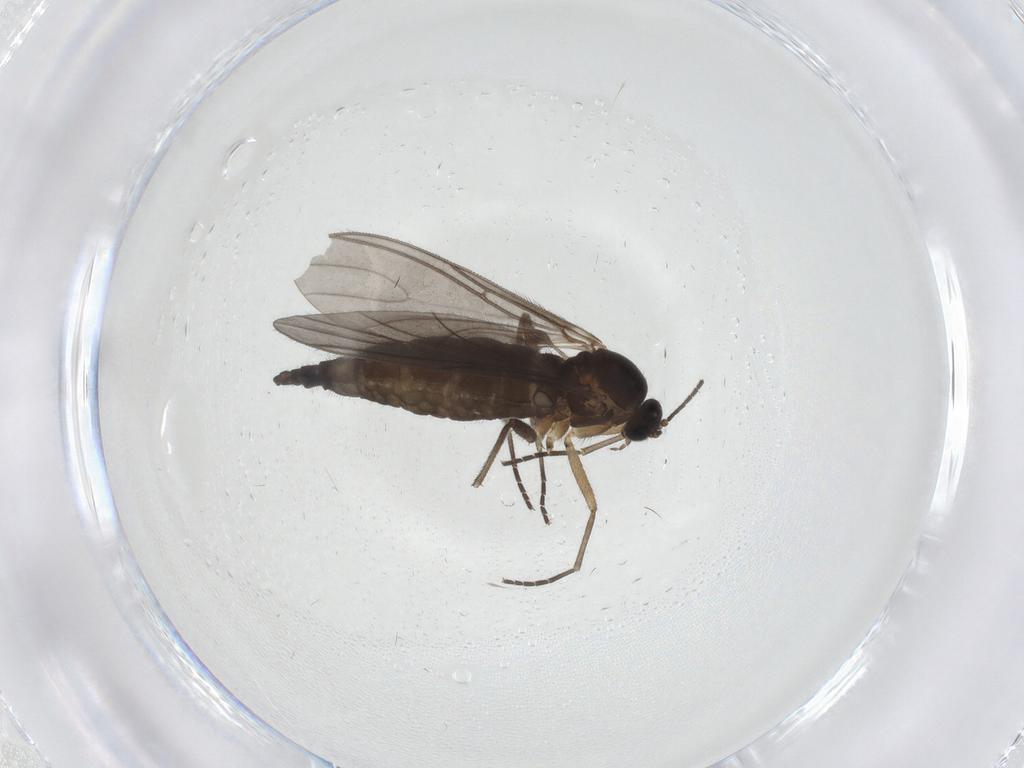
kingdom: Animalia
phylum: Arthropoda
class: Insecta
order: Diptera
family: Sciaridae
